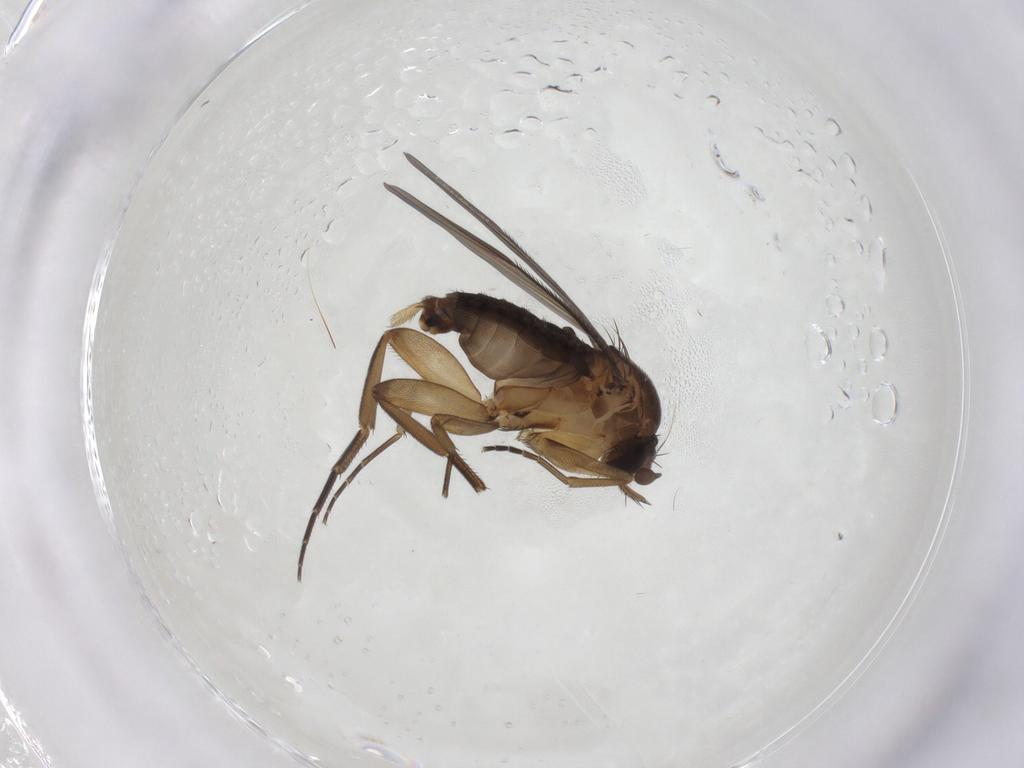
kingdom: Animalia
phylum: Arthropoda
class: Insecta
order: Diptera
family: Phoridae
